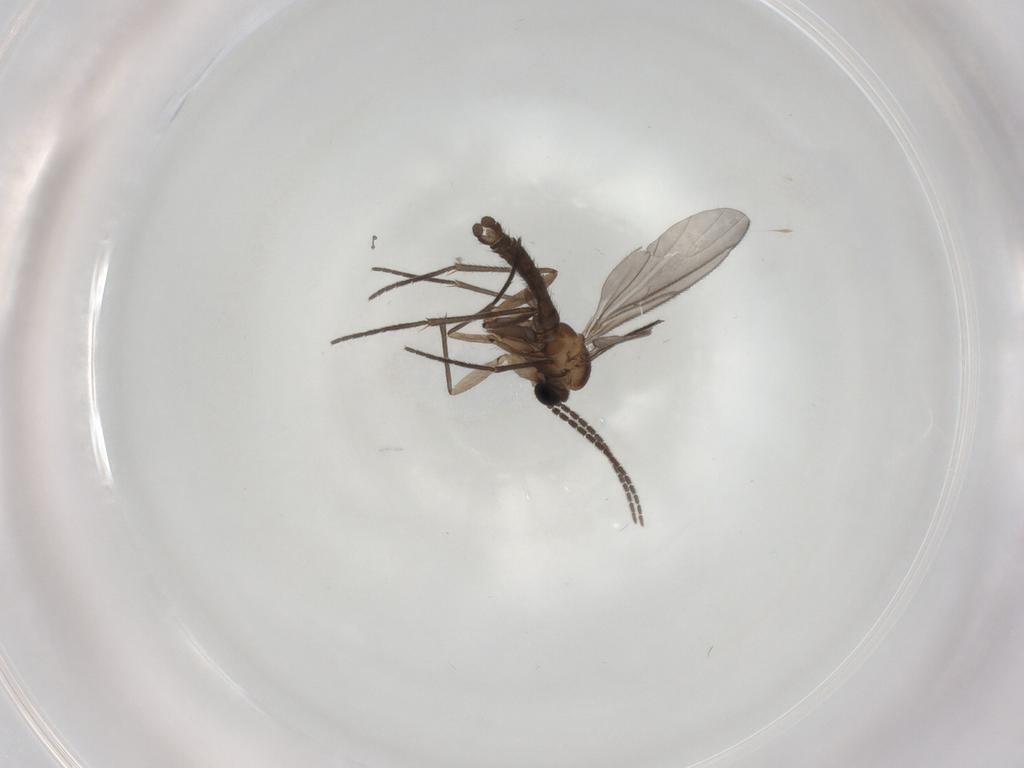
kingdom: Animalia
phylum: Arthropoda
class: Insecta
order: Diptera
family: Sciaridae
